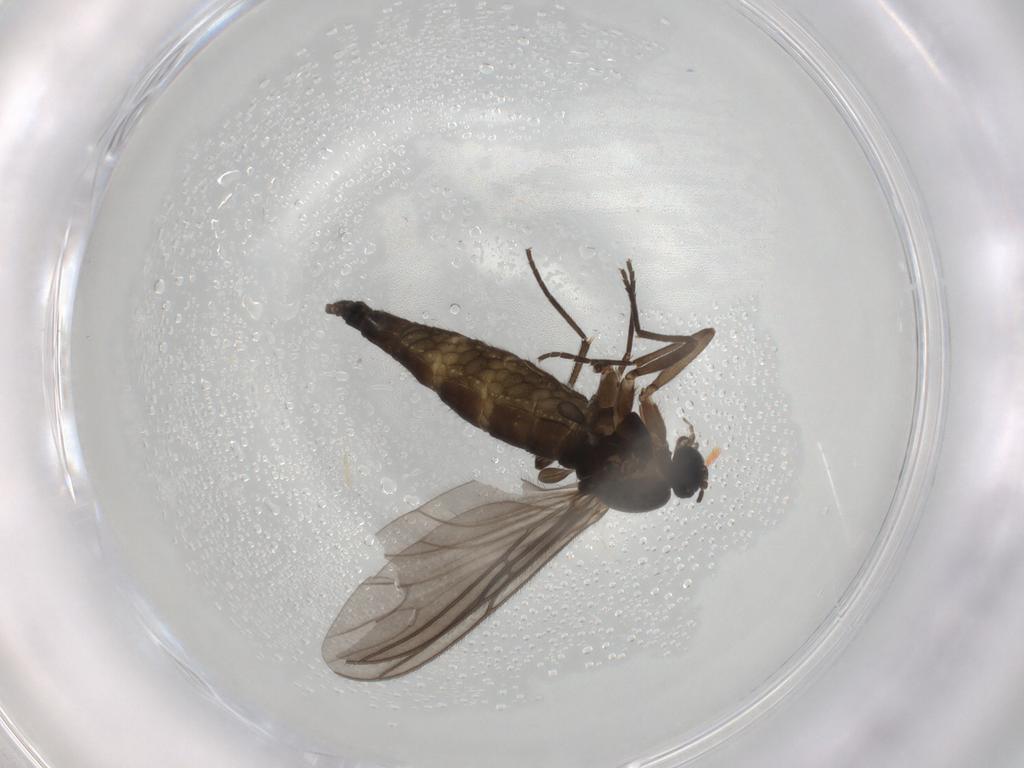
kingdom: Animalia
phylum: Arthropoda
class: Insecta
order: Diptera
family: Sciaridae
